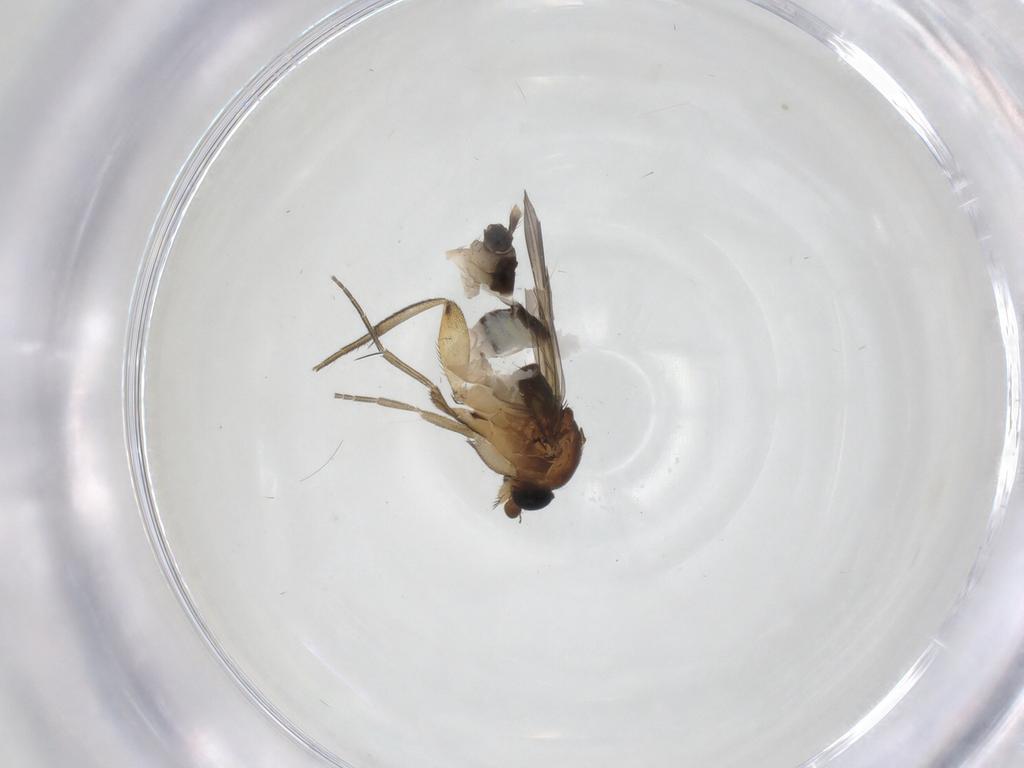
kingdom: Animalia
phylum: Arthropoda
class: Insecta
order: Diptera
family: Phoridae
